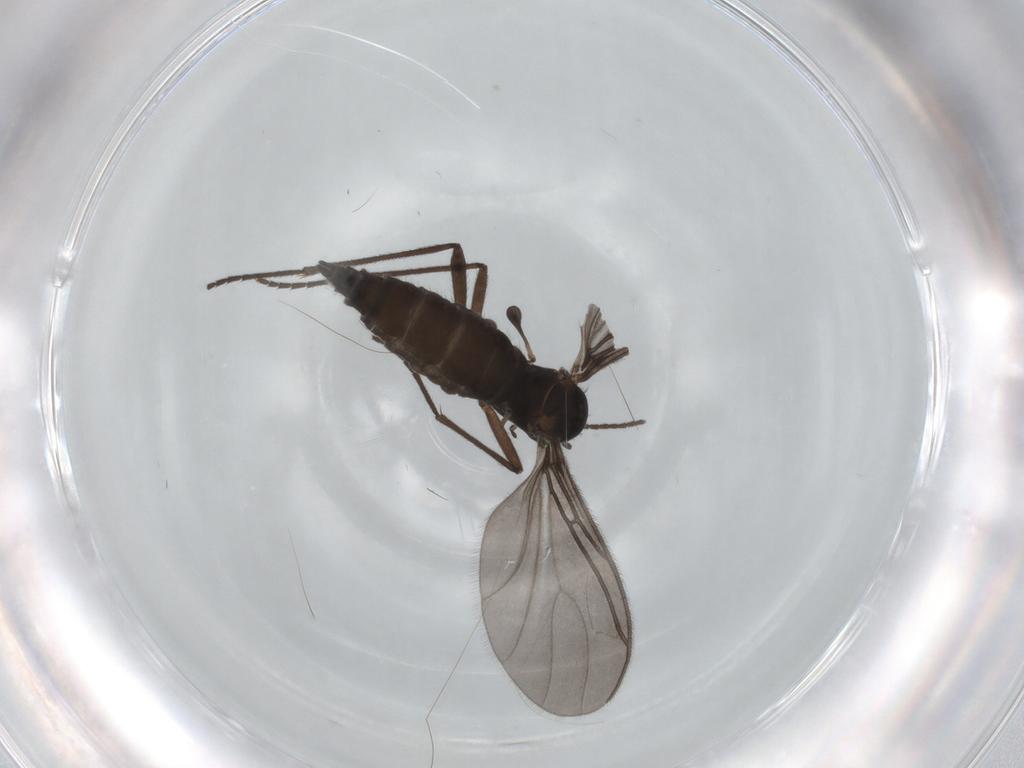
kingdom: Animalia
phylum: Arthropoda
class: Insecta
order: Diptera
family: Sciaridae
